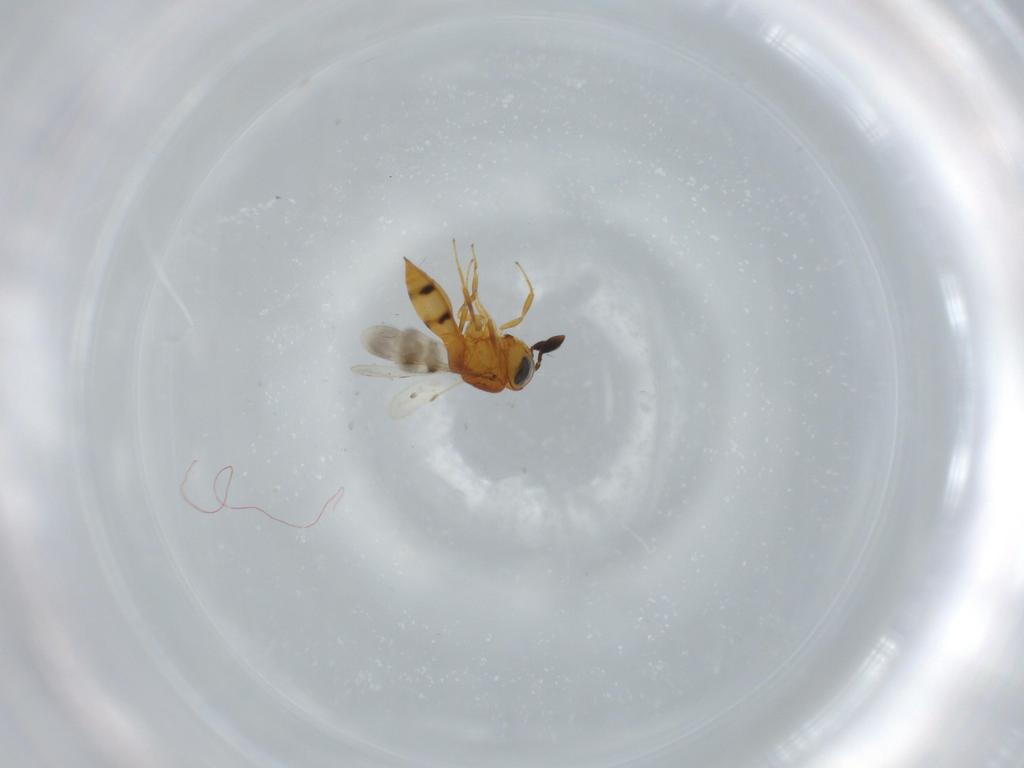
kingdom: Animalia
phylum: Arthropoda
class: Insecta
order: Hymenoptera
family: Scelionidae
